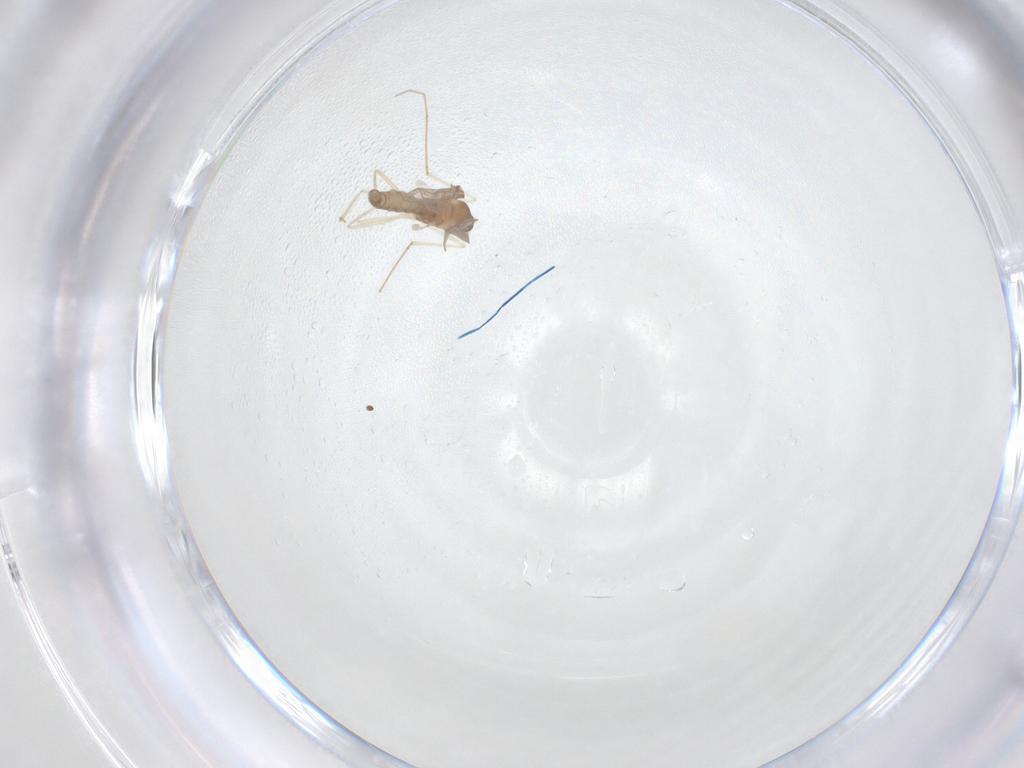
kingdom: Animalia
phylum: Arthropoda
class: Insecta
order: Diptera
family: Cecidomyiidae
